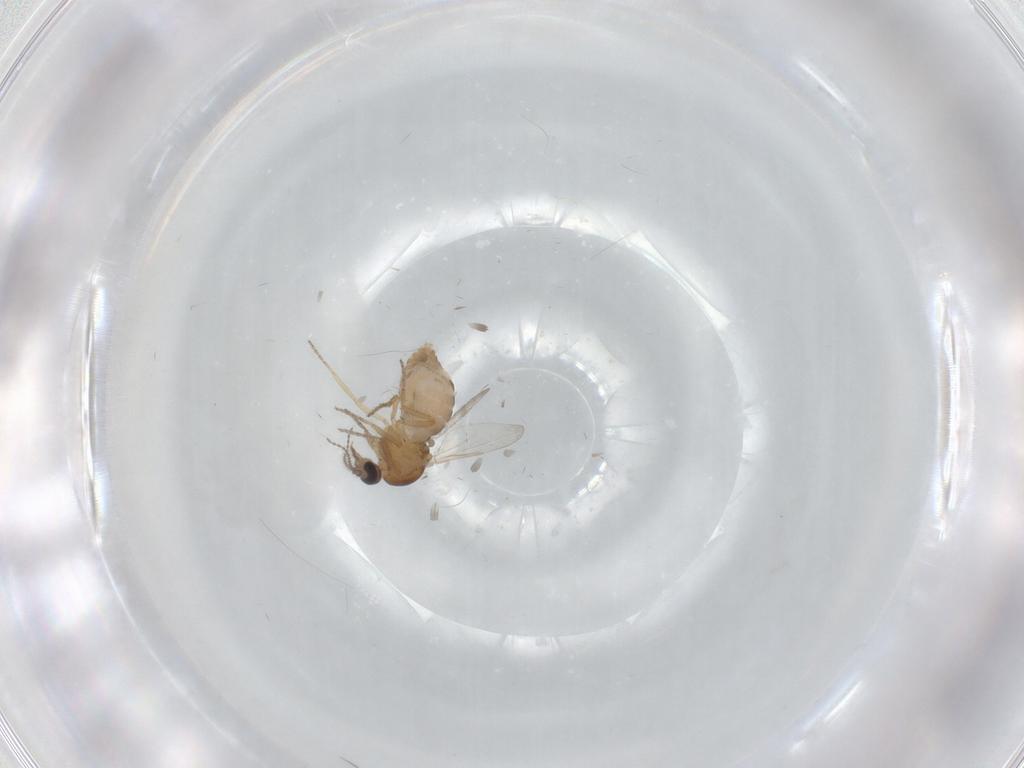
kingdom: Animalia
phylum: Arthropoda
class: Insecta
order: Diptera
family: Ceratopogonidae
